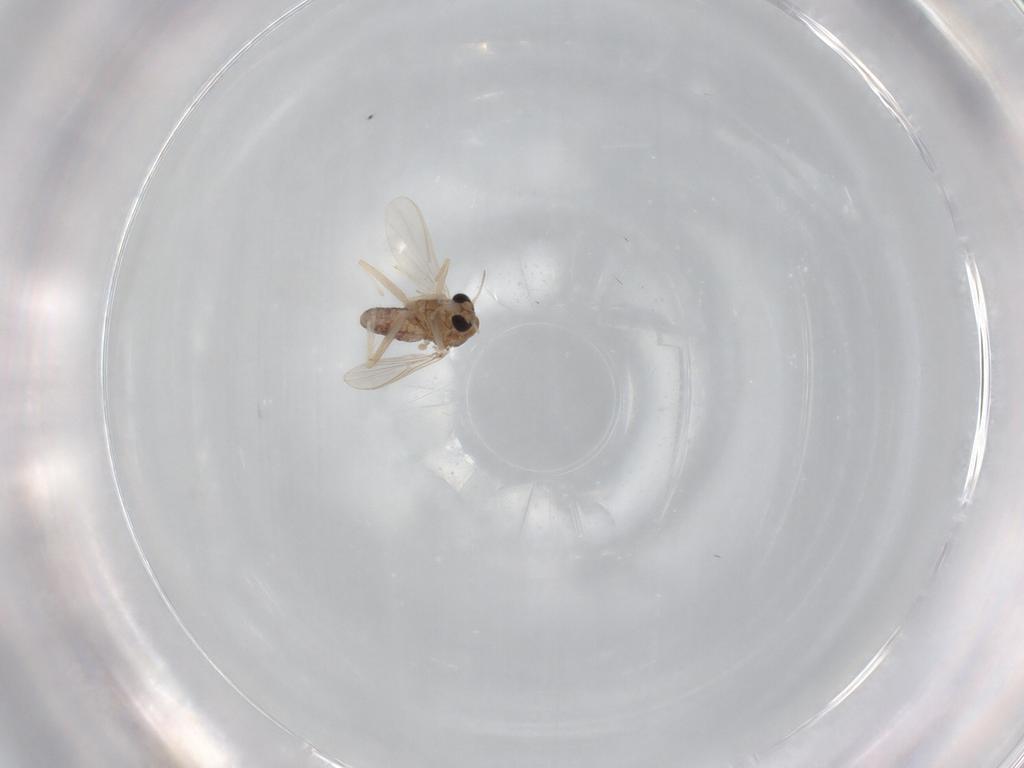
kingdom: Animalia
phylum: Arthropoda
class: Insecta
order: Diptera
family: Chironomidae
